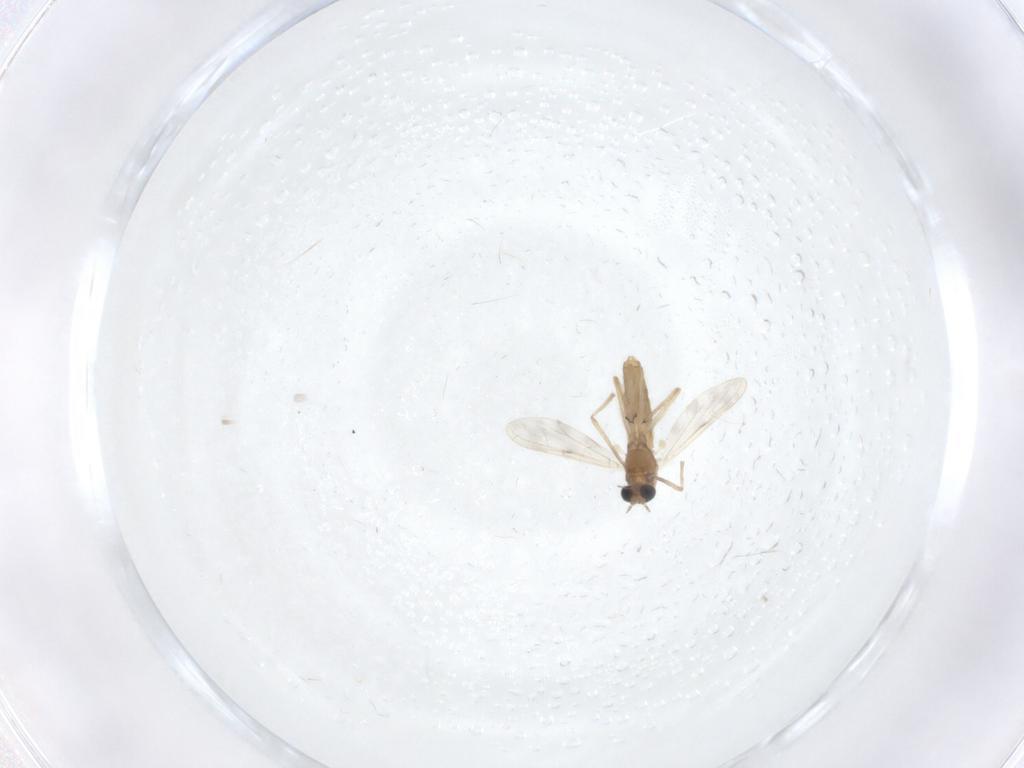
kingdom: Animalia
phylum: Arthropoda
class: Insecta
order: Diptera
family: Chironomidae
